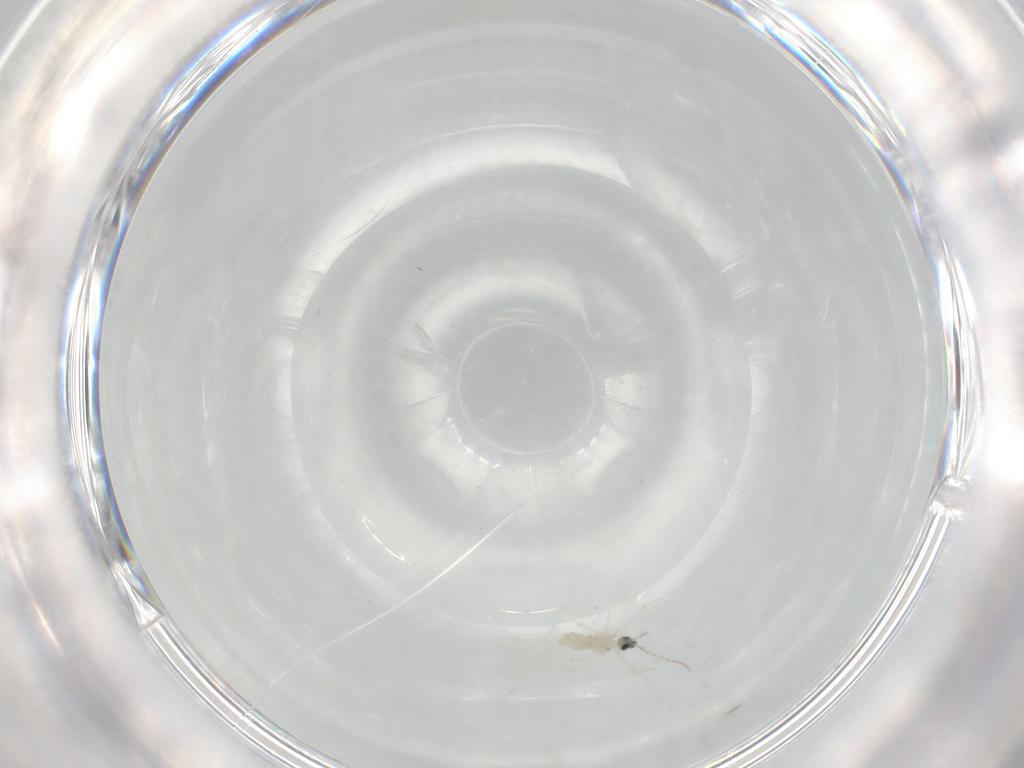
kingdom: Animalia
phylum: Arthropoda
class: Insecta
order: Diptera
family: Cecidomyiidae
